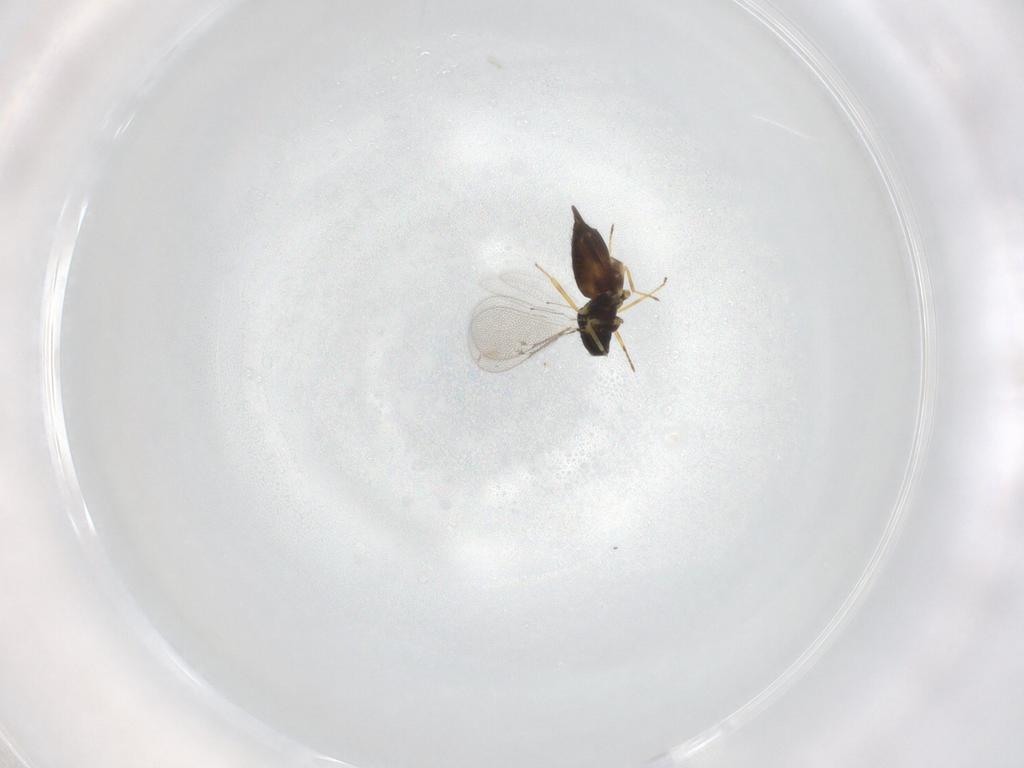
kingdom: Animalia
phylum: Arthropoda
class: Insecta
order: Hymenoptera
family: Eulophidae
